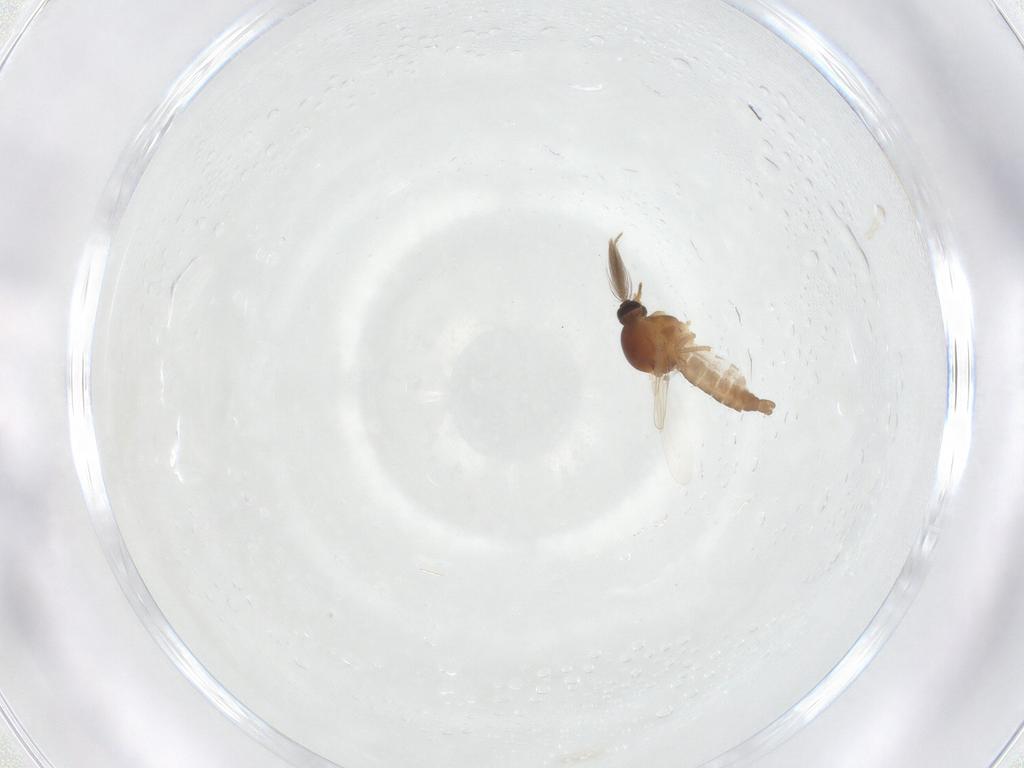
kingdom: Animalia
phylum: Arthropoda
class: Insecta
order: Diptera
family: Ceratopogonidae
